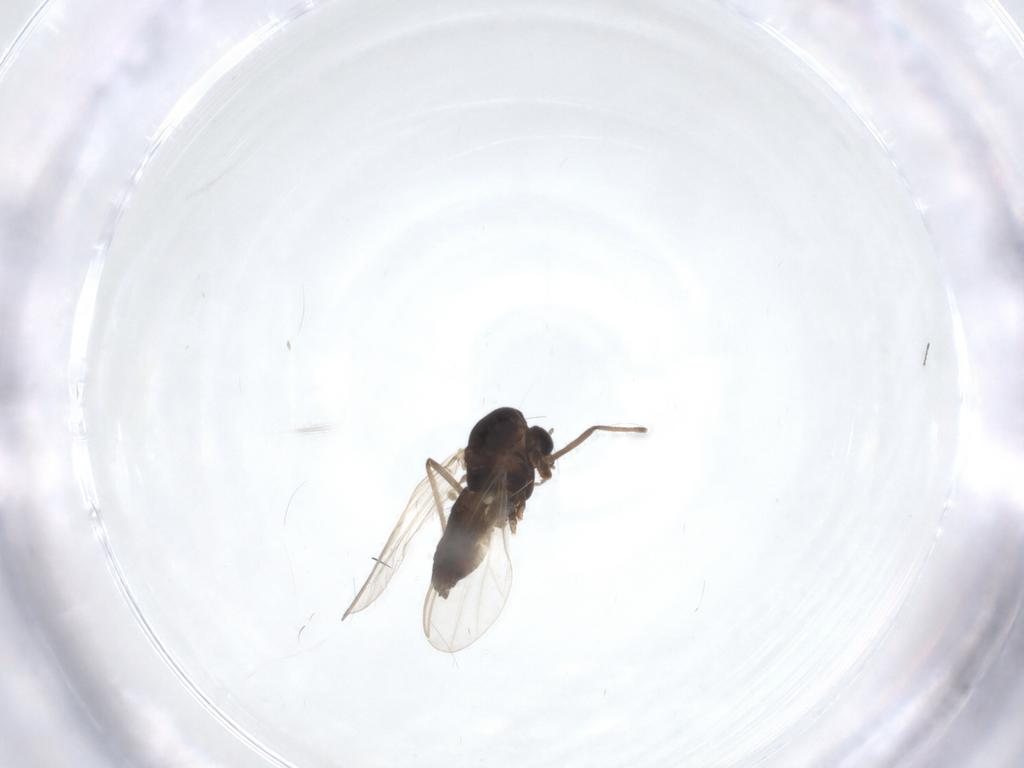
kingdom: Animalia
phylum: Arthropoda
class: Insecta
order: Diptera
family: Chironomidae
